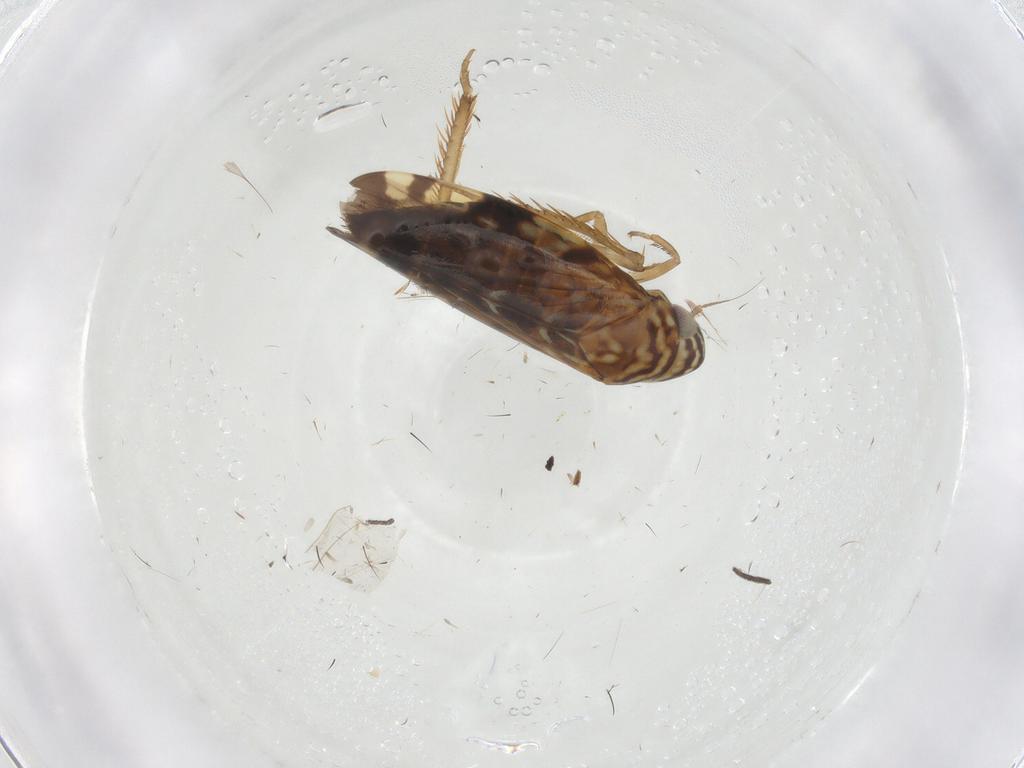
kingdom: Animalia
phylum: Arthropoda
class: Insecta
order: Hemiptera
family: Cicadellidae
